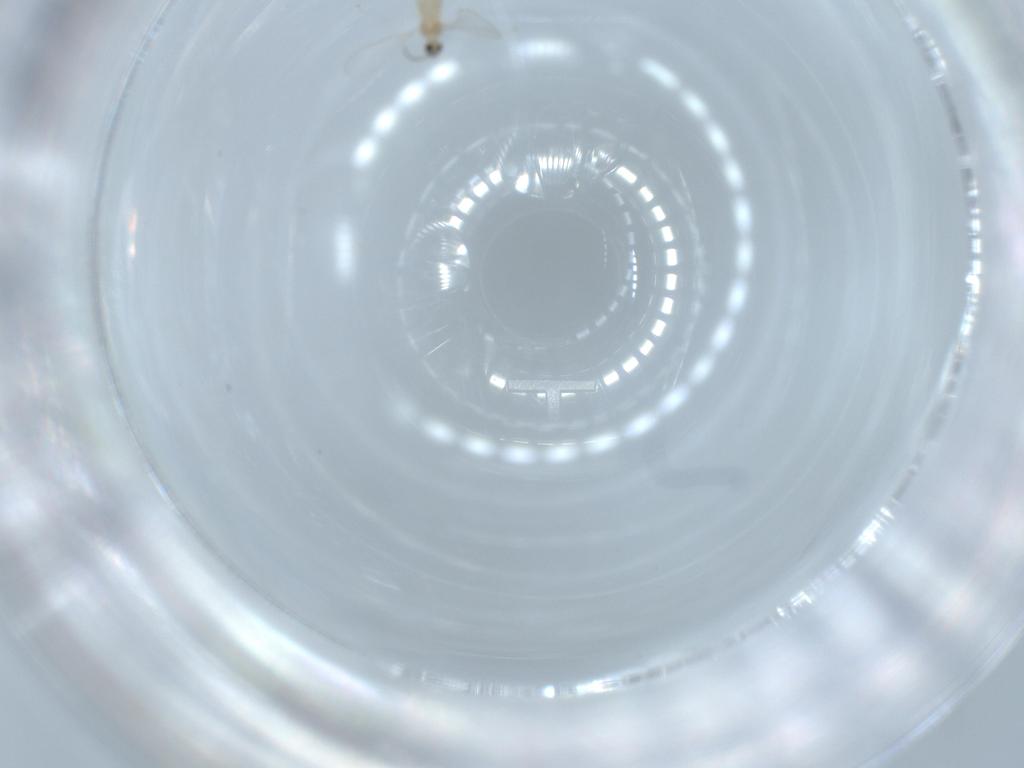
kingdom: Animalia
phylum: Arthropoda
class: Insecta
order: Diptera
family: Cecidomyiidae
